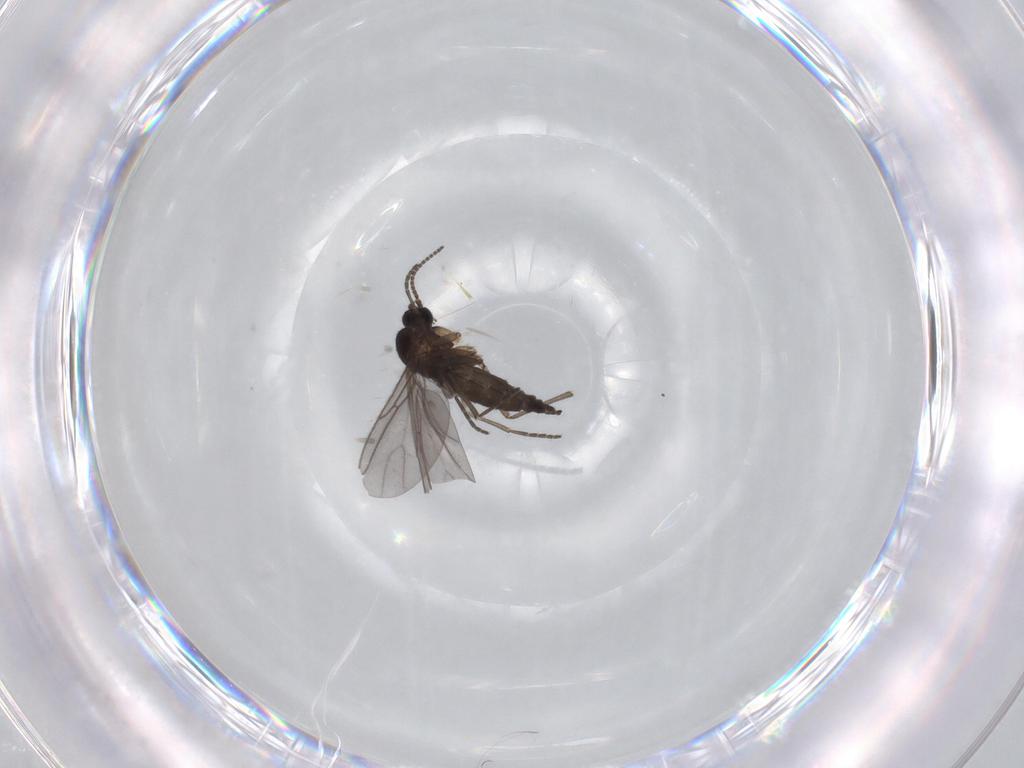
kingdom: Animalia
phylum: Arthropoda
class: Insecta
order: Diptera
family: Sciaridae
